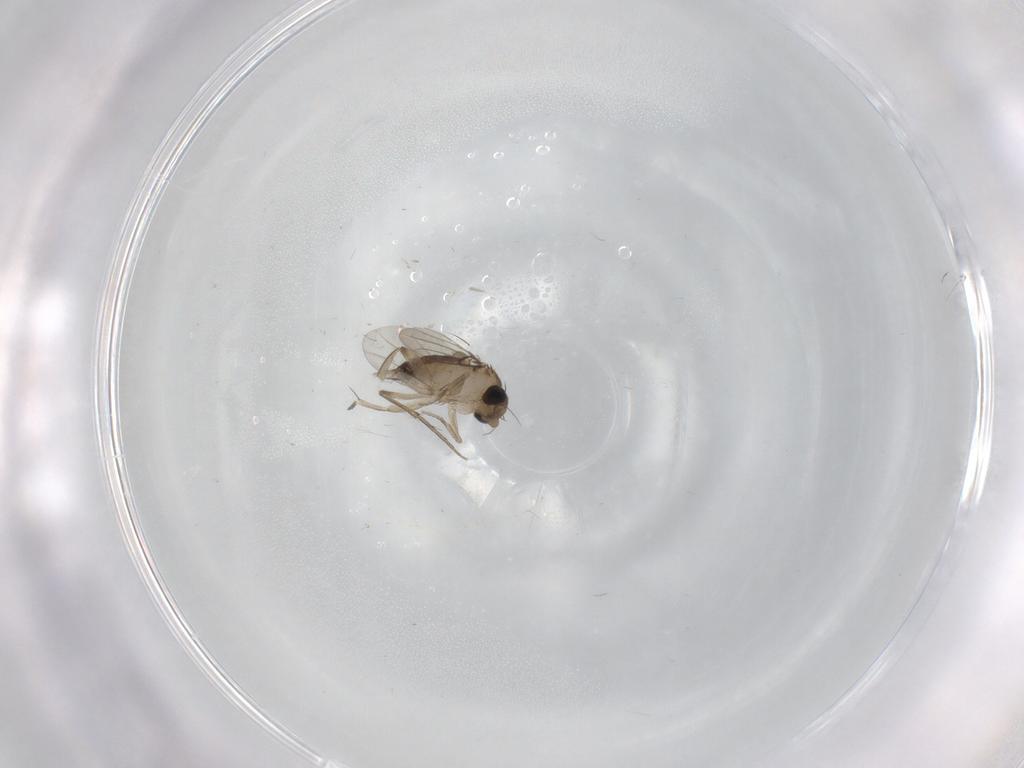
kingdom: Animalia
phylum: Arthropoda
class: Insecta
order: Diptera
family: Phoridae
